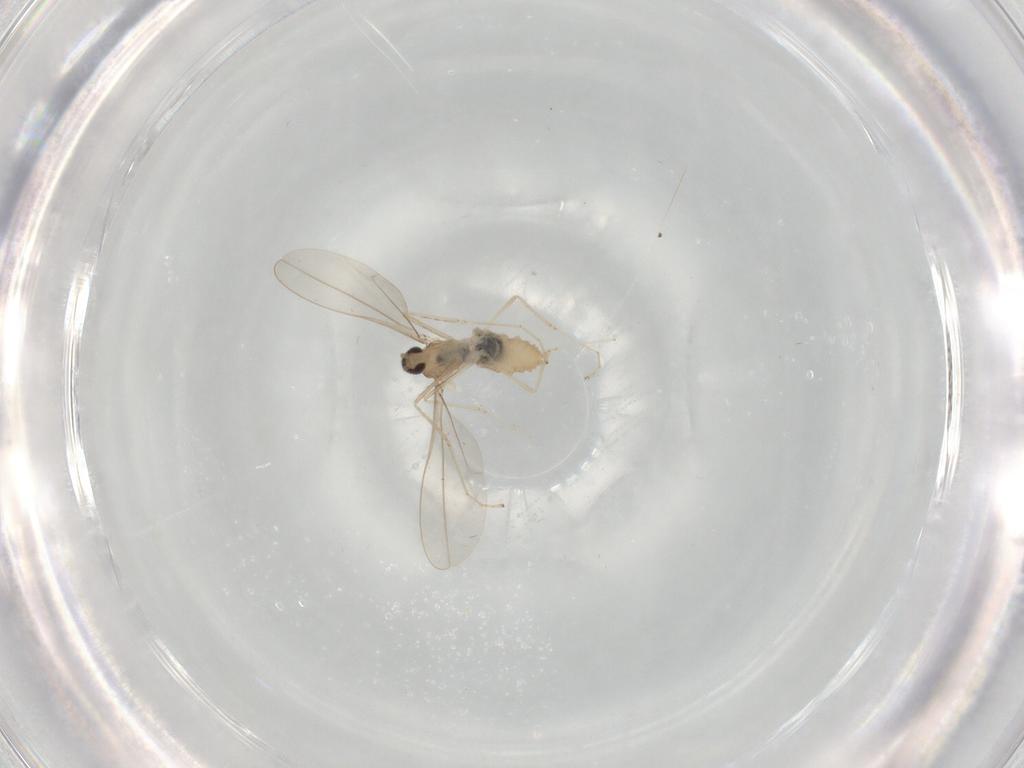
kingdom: Animalia
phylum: Arthropoda
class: Insecta
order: Diptera
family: Cecidomyiidae
